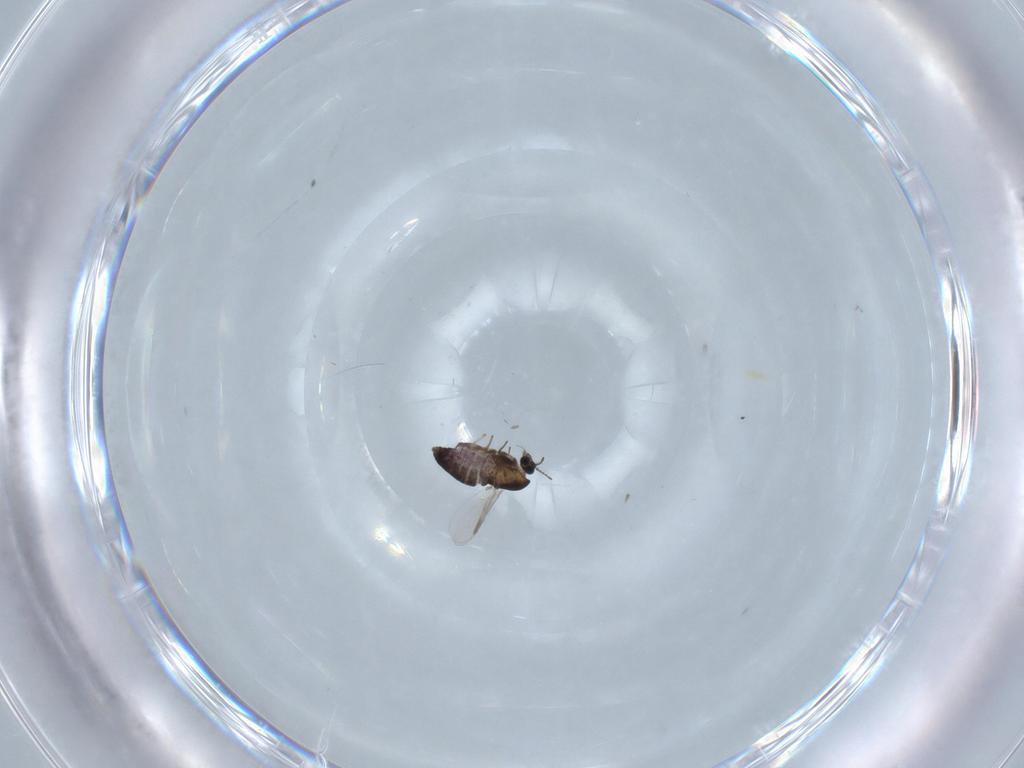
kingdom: Animalia
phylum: Arthropoda
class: Insecta
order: Diptera
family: Chironomidae
